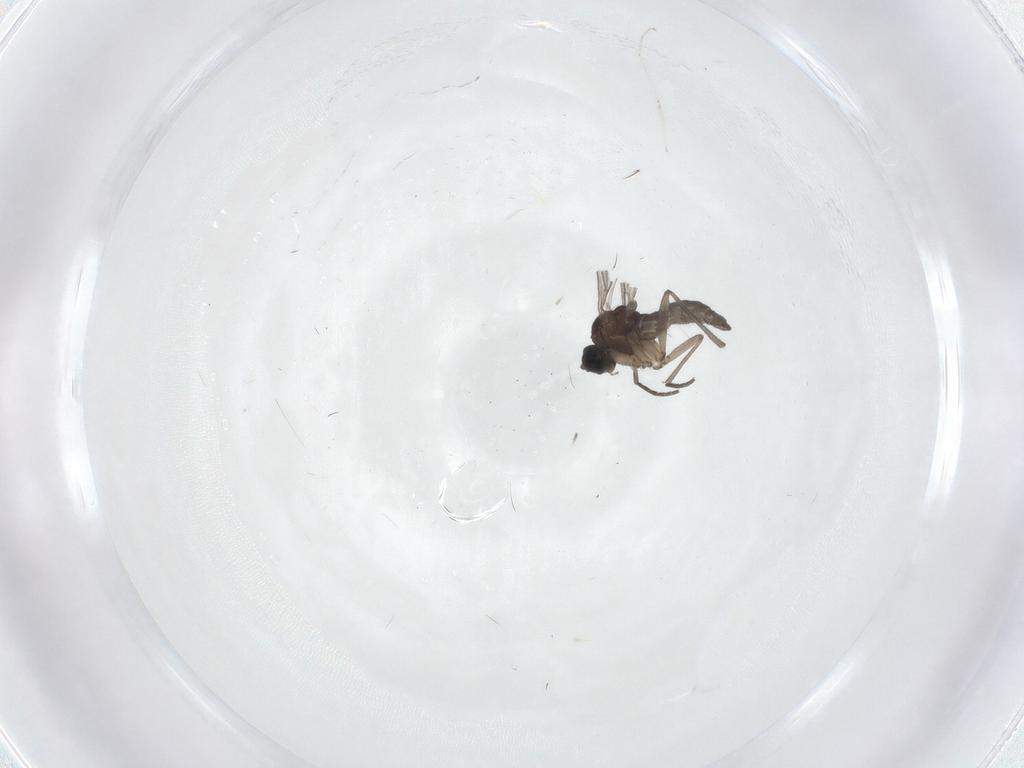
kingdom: Animalia
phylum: Arthropoda
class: Insecta
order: Diptera
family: Sciaridae
